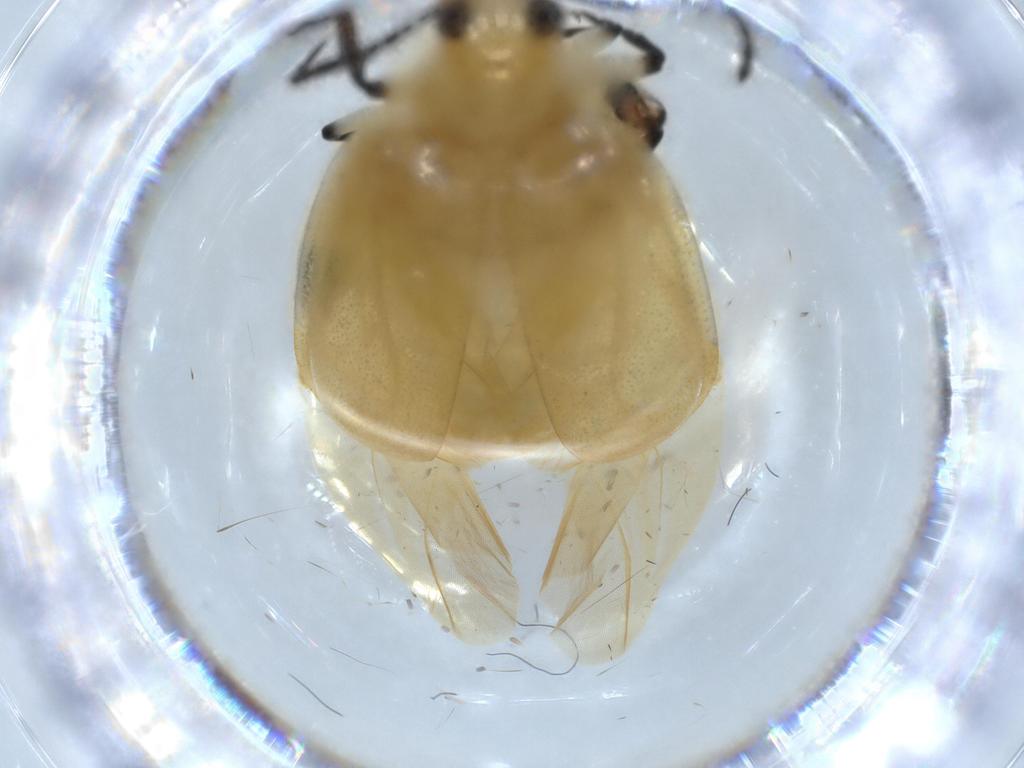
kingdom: Animalia
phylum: Arthropoda
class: Insecta
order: Coleoptera
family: Chrysomelidae
